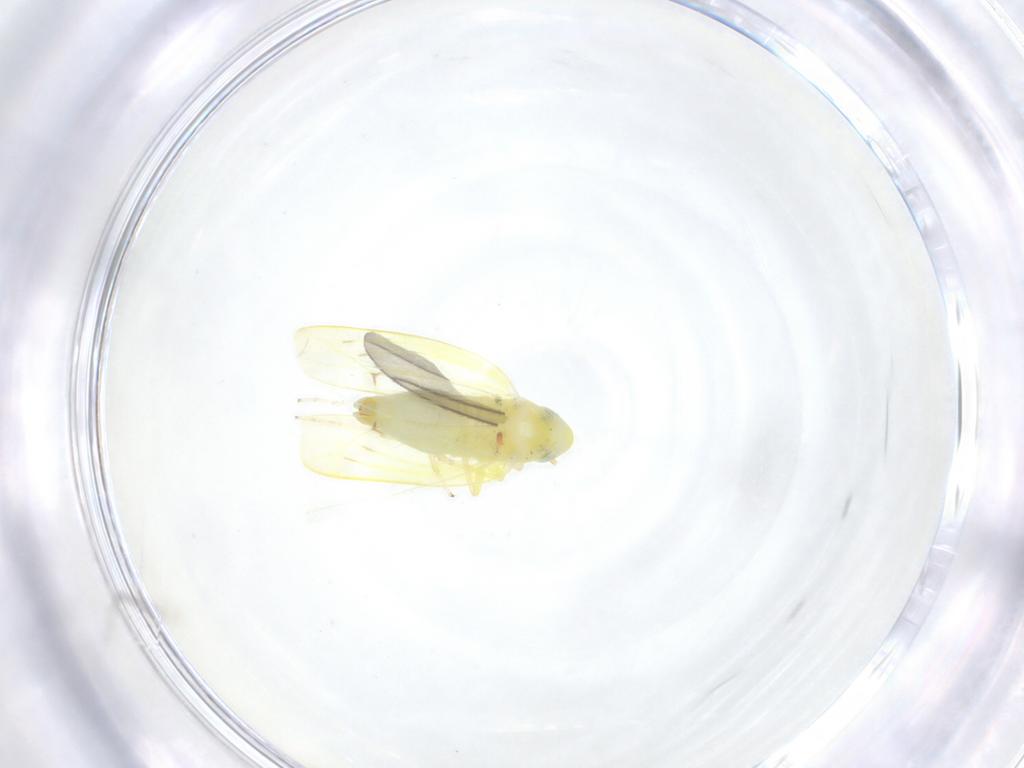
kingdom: Animalia
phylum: Arthropoda
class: Insecta
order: Hemiptera
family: Cicadellidae
